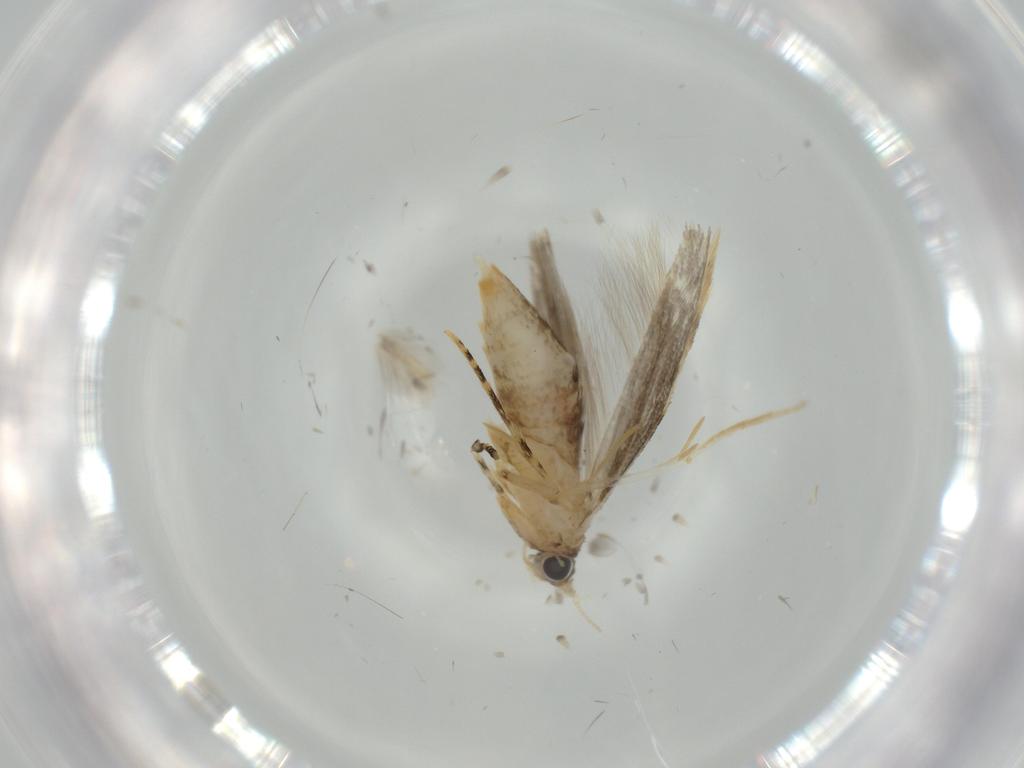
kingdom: Animalia
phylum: Arthropoda
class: Insecta
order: Lepidoptera
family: Tineidae
